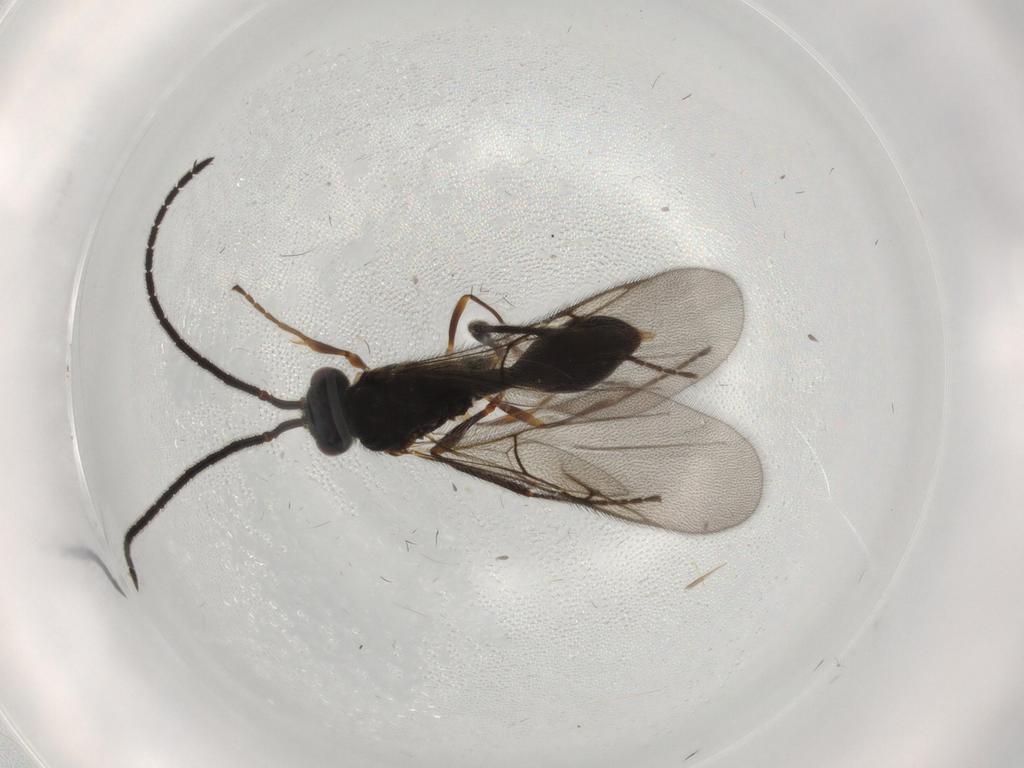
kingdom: Animalia
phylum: Arthropoda
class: Insecta
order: Hymenoptera
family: Diapriidae
